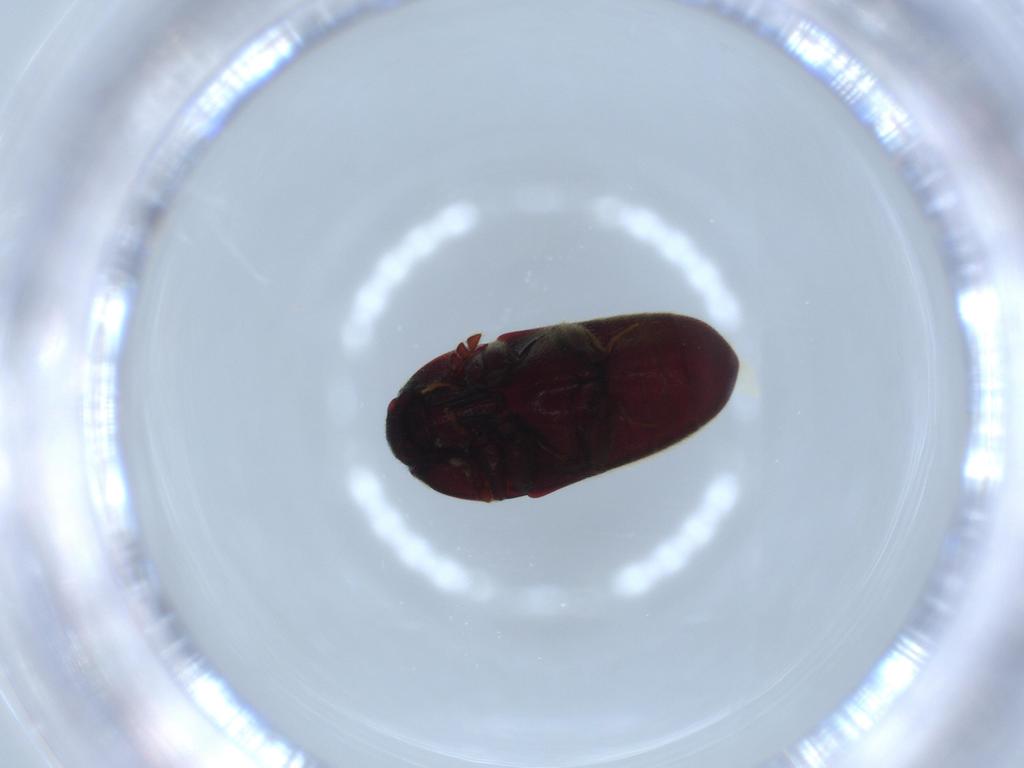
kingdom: Animalia
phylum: Arthropoda
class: Insecta
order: Coleoptera
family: Throscidae
